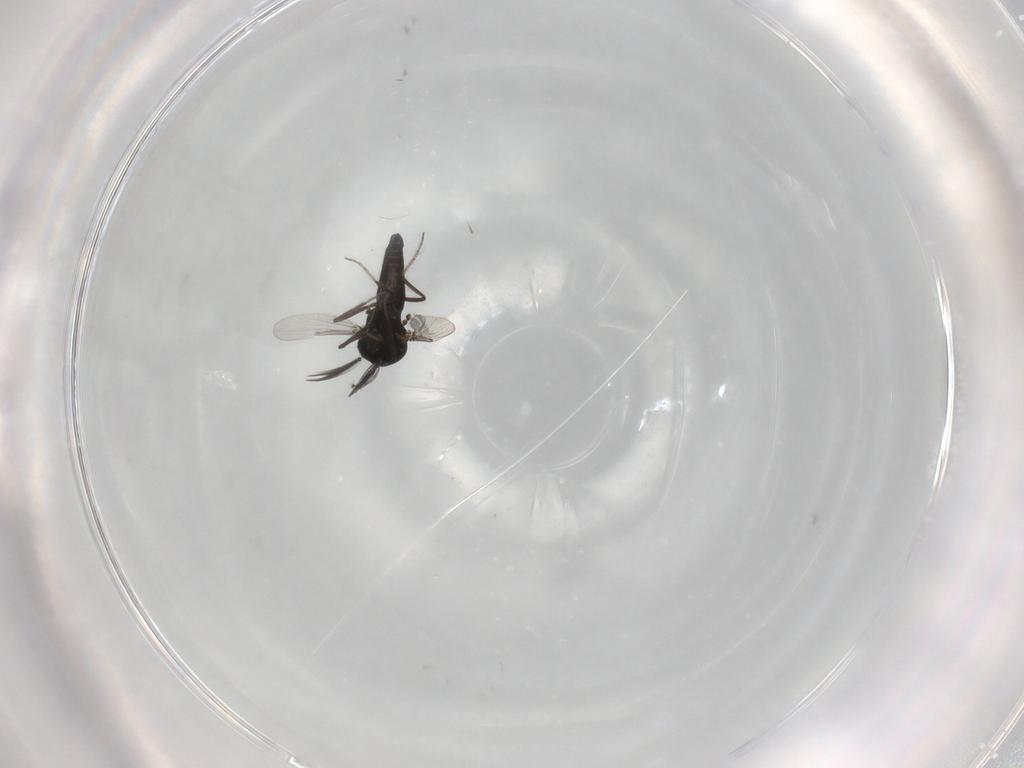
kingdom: Animalia
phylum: Arthropoda
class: Insecta
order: Diptera
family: Ceratopogonidae
